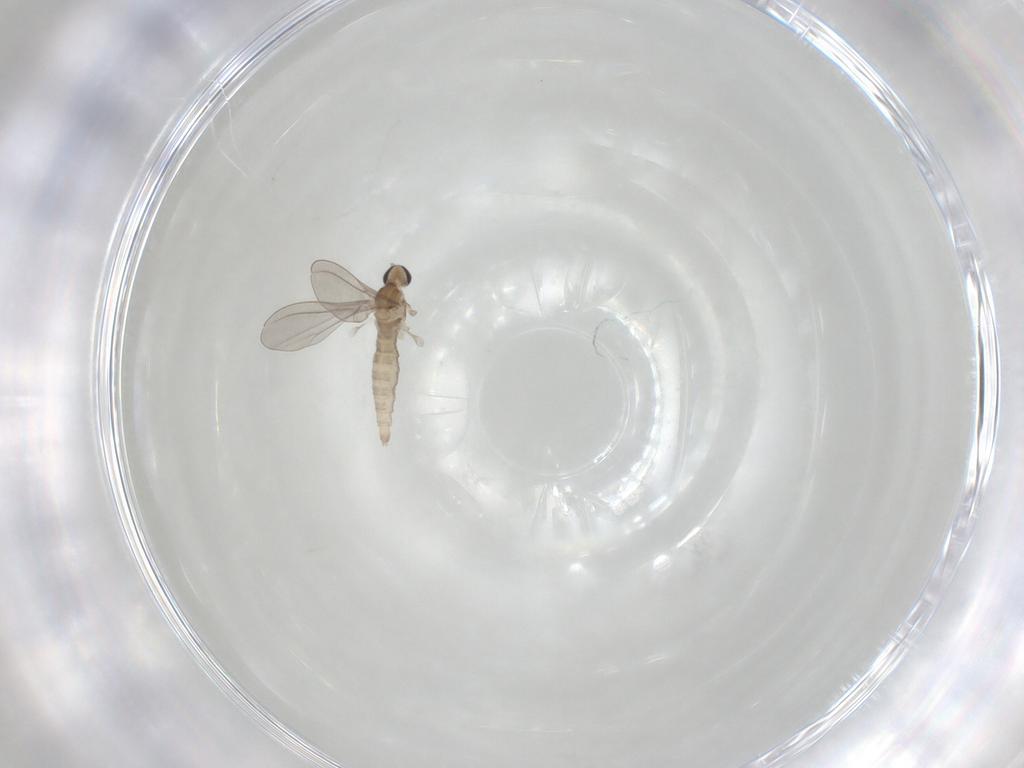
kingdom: Animalia
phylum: Arthropoda
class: Insecta
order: Diptera
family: Cecidomyiidae
